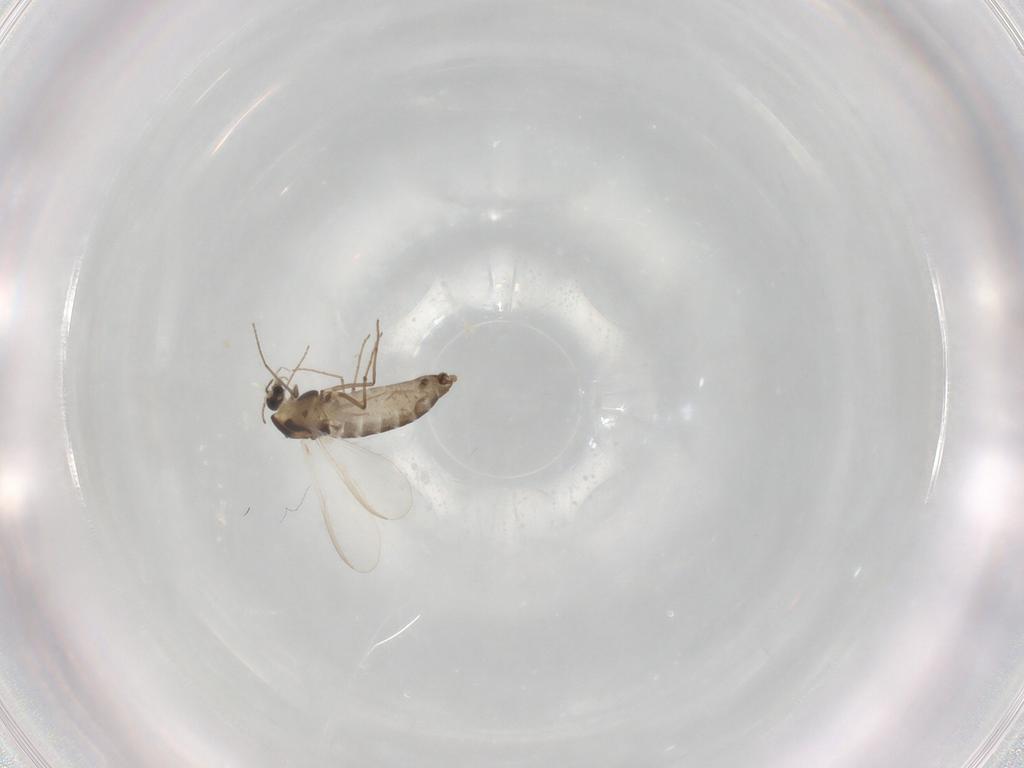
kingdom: Animalia
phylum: Arthropoda
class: Insecta
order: Diptera
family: Chironomidae
